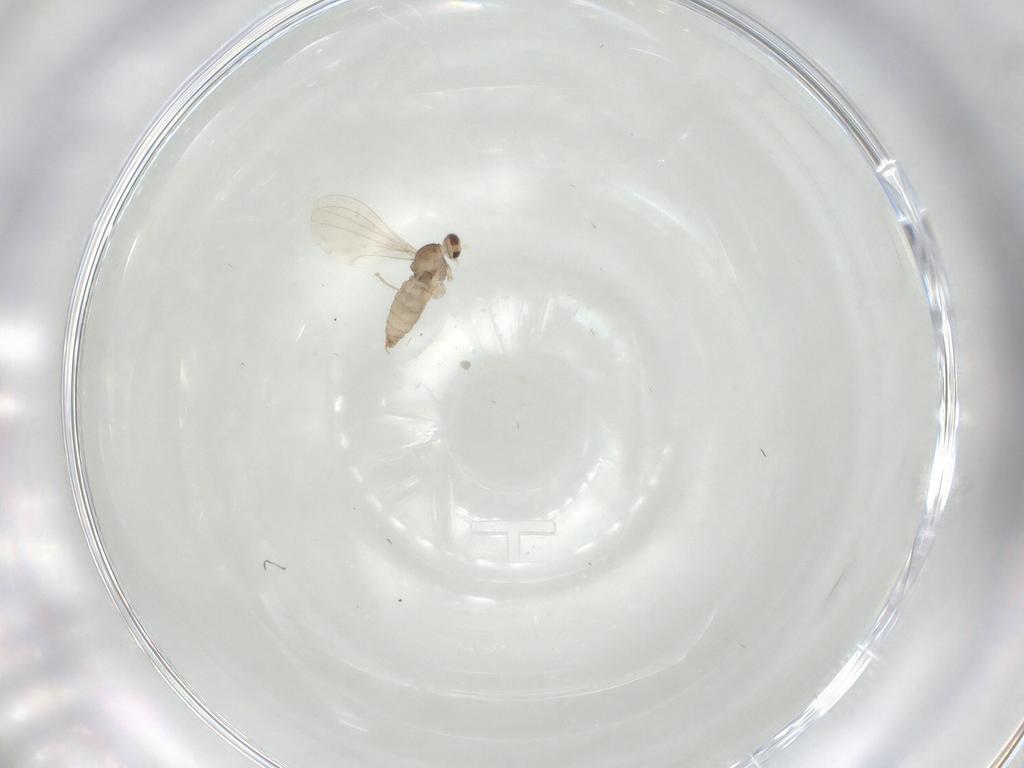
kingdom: Animalia
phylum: Arthropoda
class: Insecta
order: Diptera
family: Cecidomyiidae
